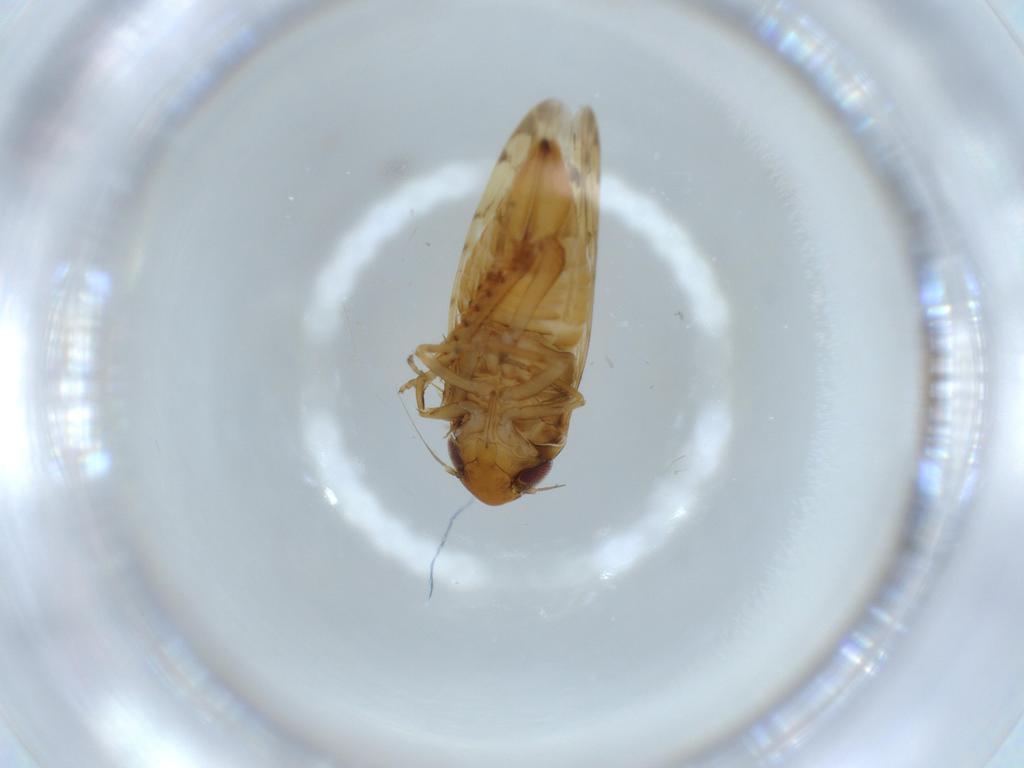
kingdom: Animalia
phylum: Arthropoda
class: Insecta
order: Hemiptera
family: Cicadellidae
